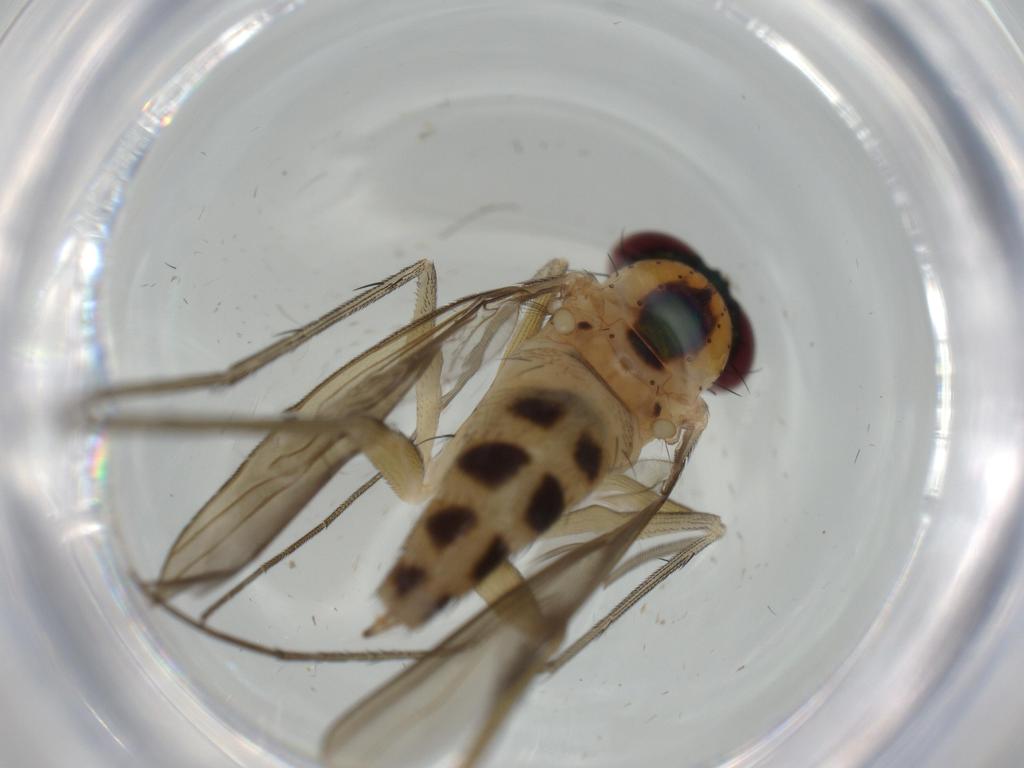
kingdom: Animalia
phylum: Arthropoda
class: Insecta
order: Diptera
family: Dolichopodidae
